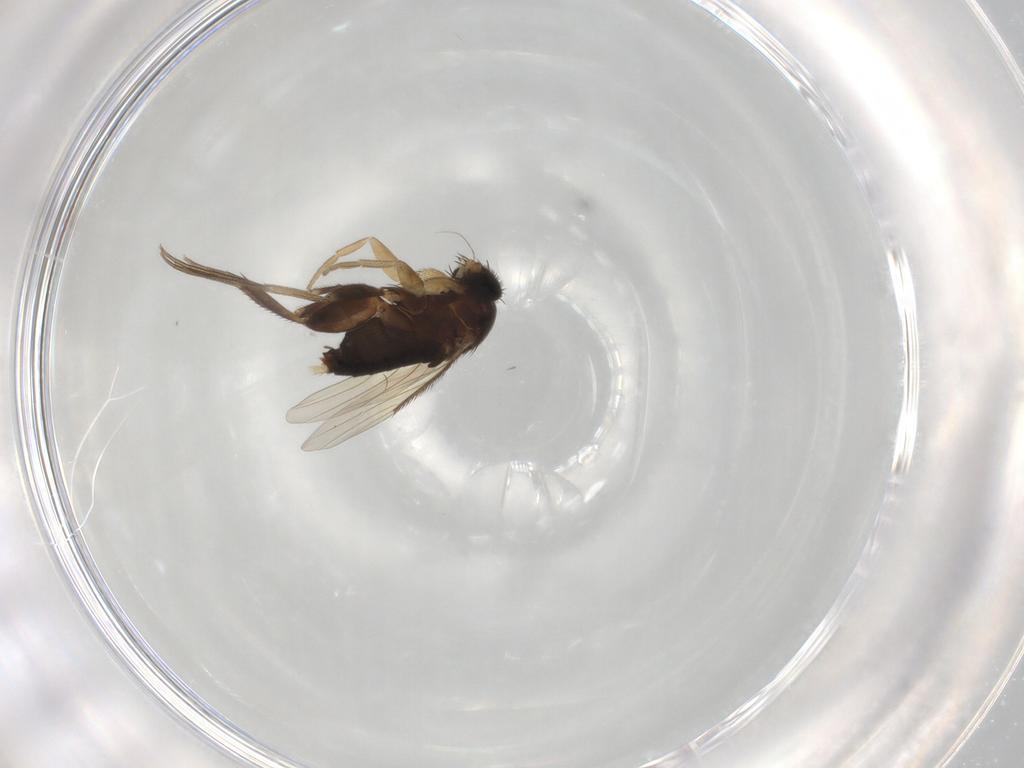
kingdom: Animalia
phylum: Arthropoda
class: Insecta
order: Diptera
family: Phoridae
